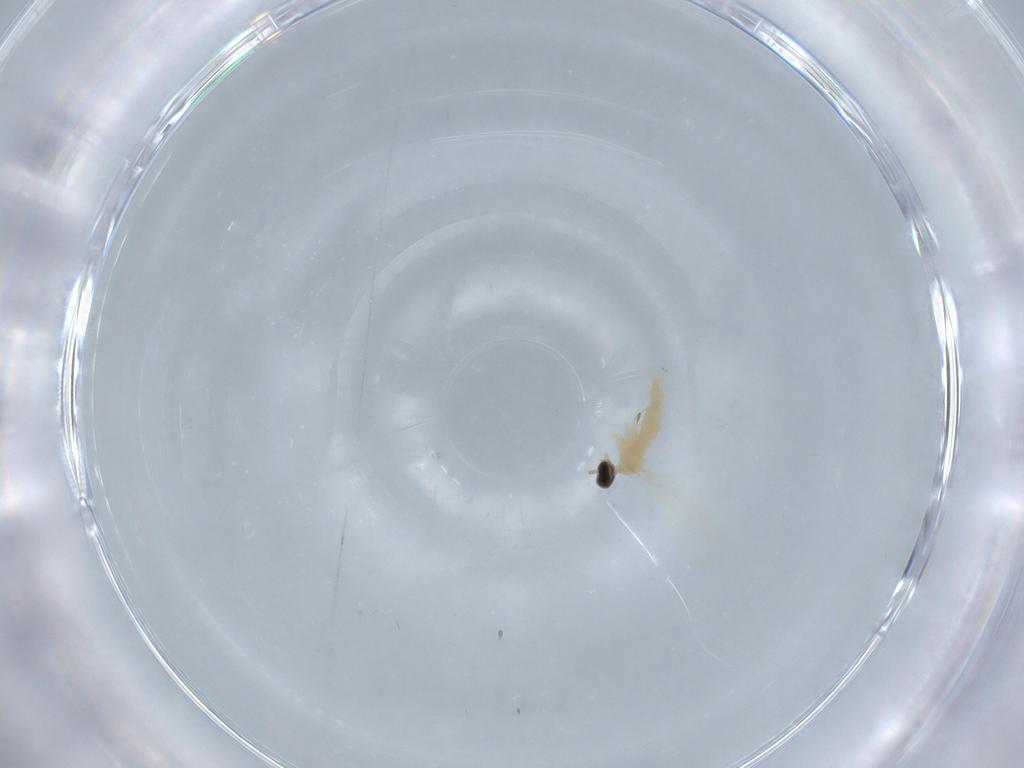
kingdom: Animalia
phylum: Arthropoda
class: Insecta
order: Diptera
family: Cecidomyiidae
